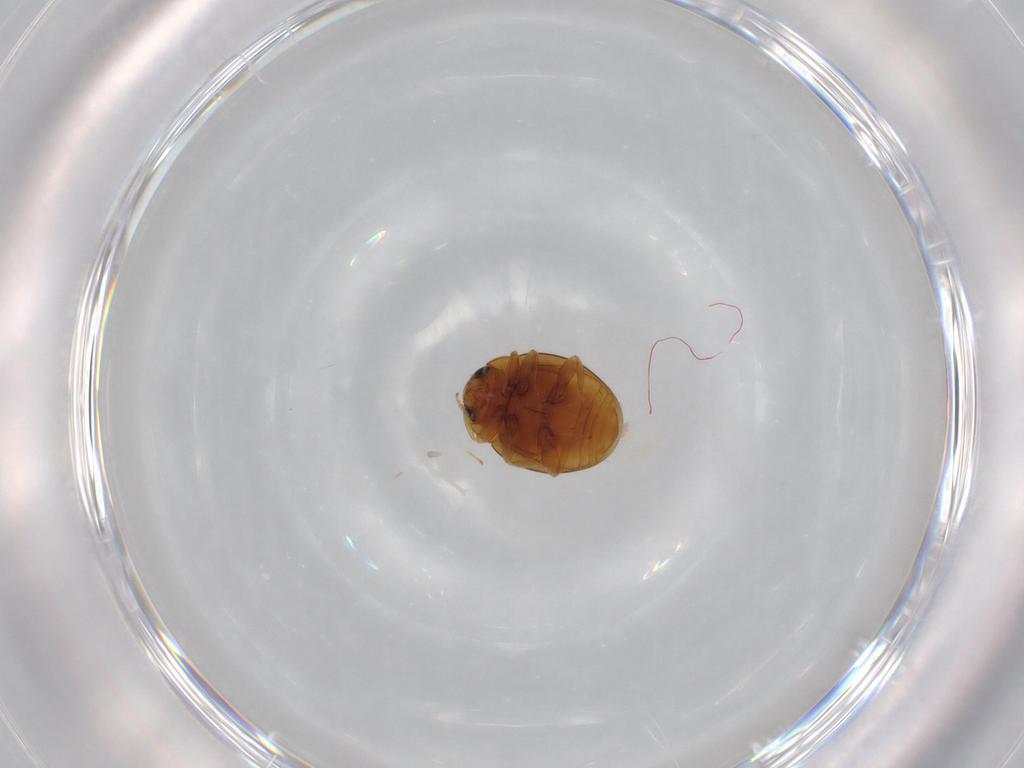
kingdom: Animalia
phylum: Arthropoda
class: Insecta
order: Coleoptera
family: Coccinellidae
